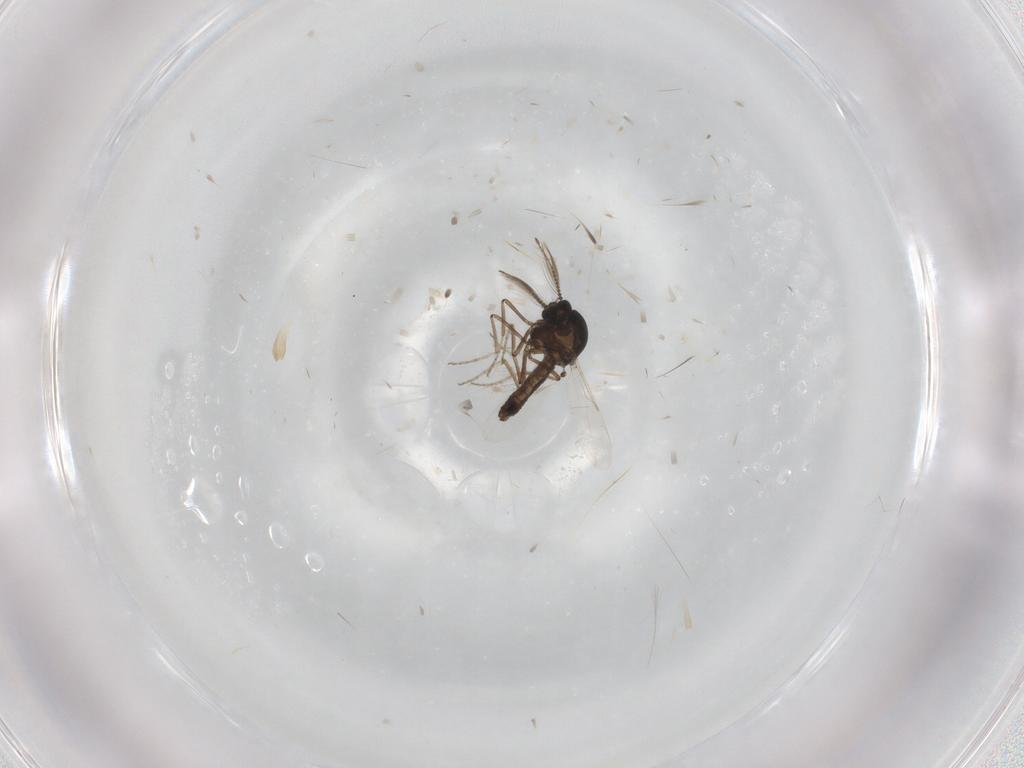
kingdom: Animalia
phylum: Arthropoda
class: Insecta
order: Diptera
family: Ceratopogonidae
